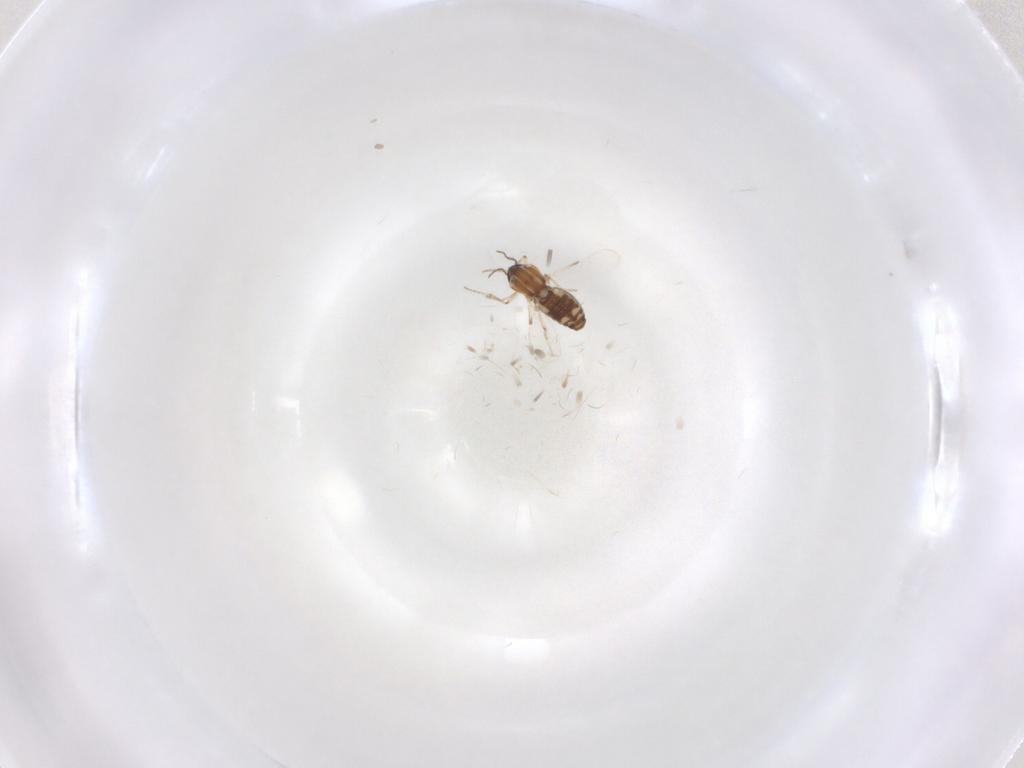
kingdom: Animalia
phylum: Arthropoda
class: Insecta
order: Diptera
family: Ceratopogonidae
